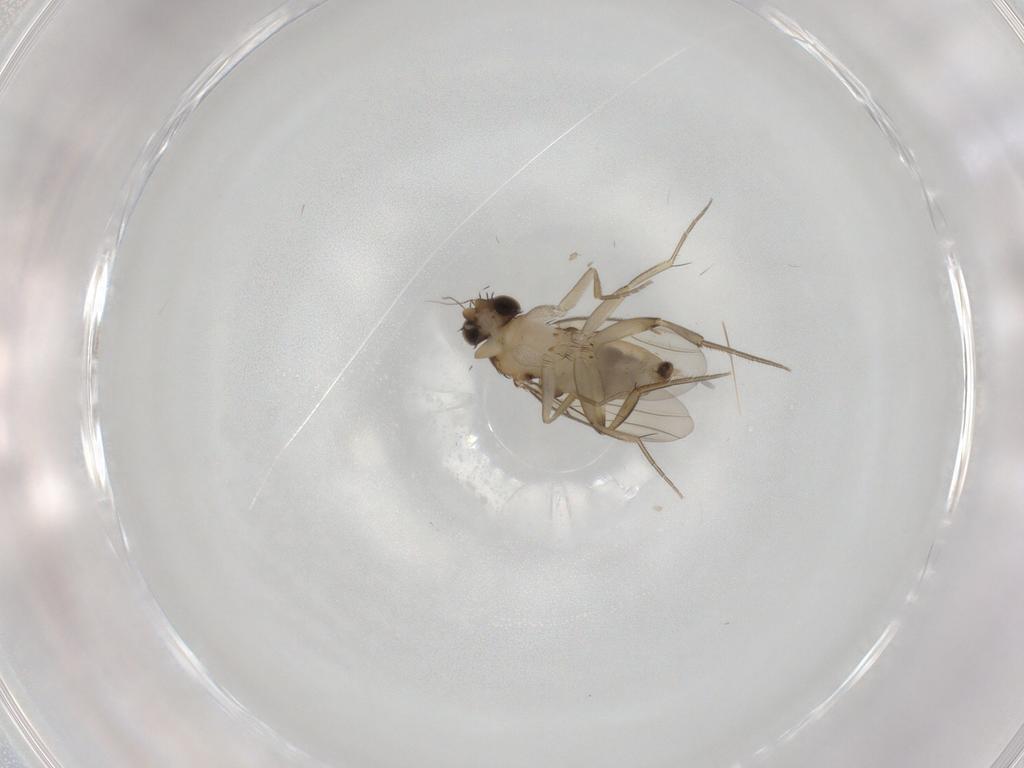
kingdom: Animalia
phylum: Arthropoda
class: Insecta
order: Diptera
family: Phoridae
